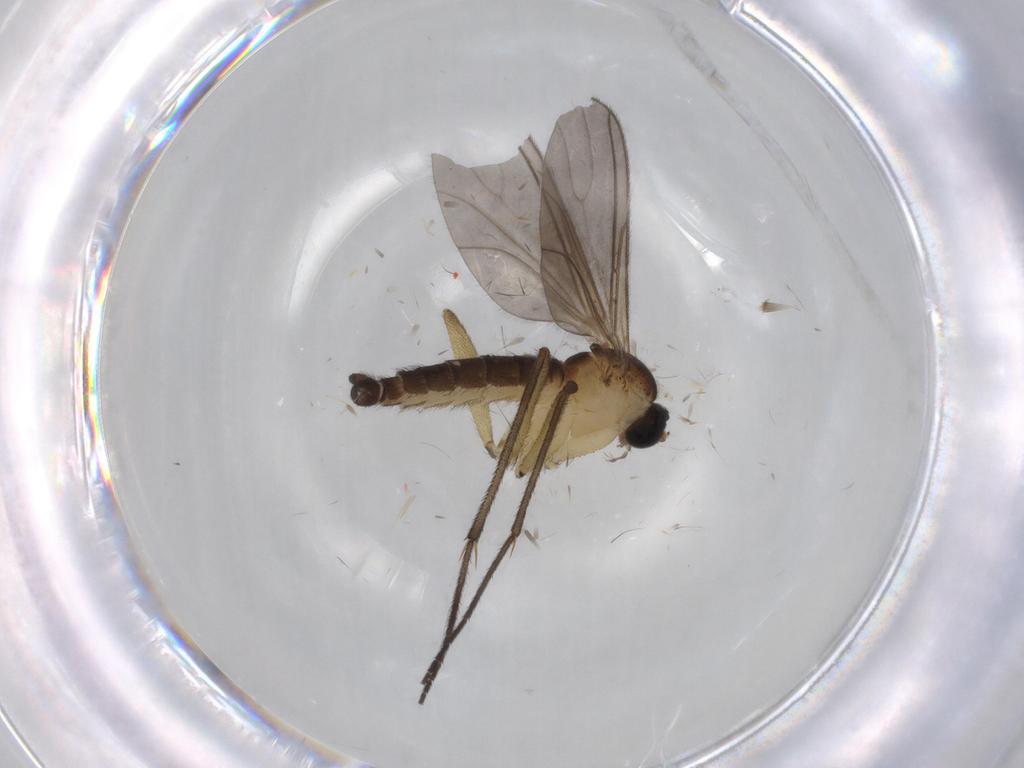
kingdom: Animalia
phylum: Arthropoda
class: Insecta
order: Diptera
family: Sciaridae
